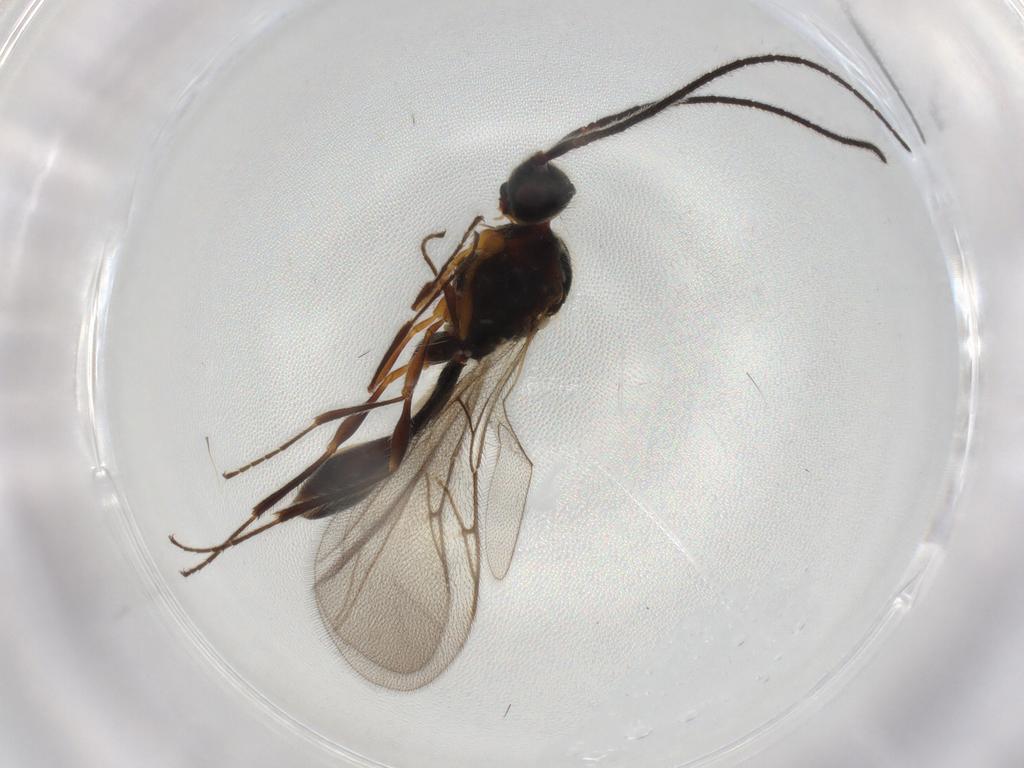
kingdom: Animalia
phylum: Arthropoda
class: Insecta
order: Hymenoptera
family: Diapriidae
